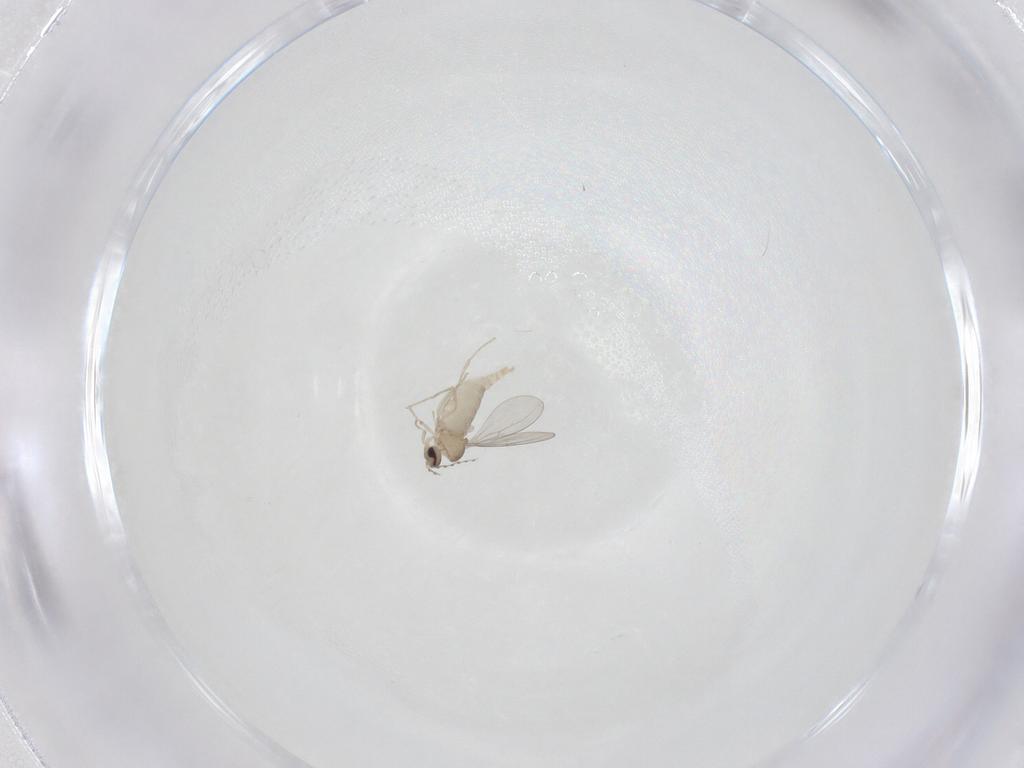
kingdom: Animalia
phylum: Arthropoda
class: Insecta
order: Diptera
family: Cecidomyiidae
